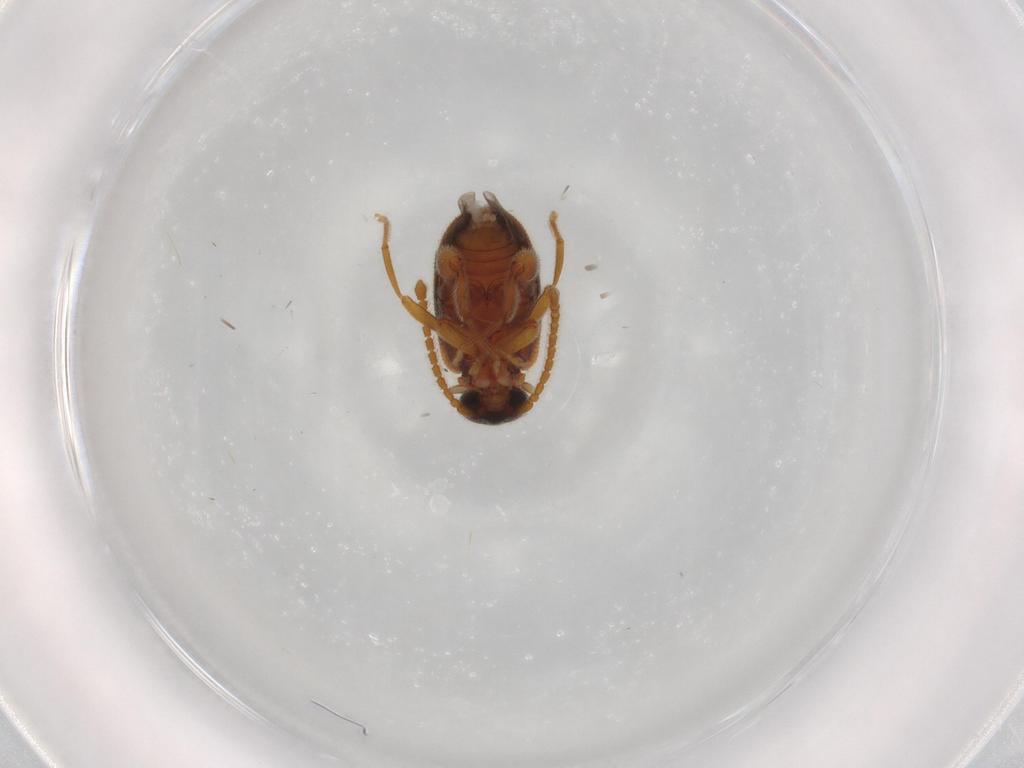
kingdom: Animalia
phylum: Arthropoda
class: Insecta
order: Coleoptera
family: Aderidae
